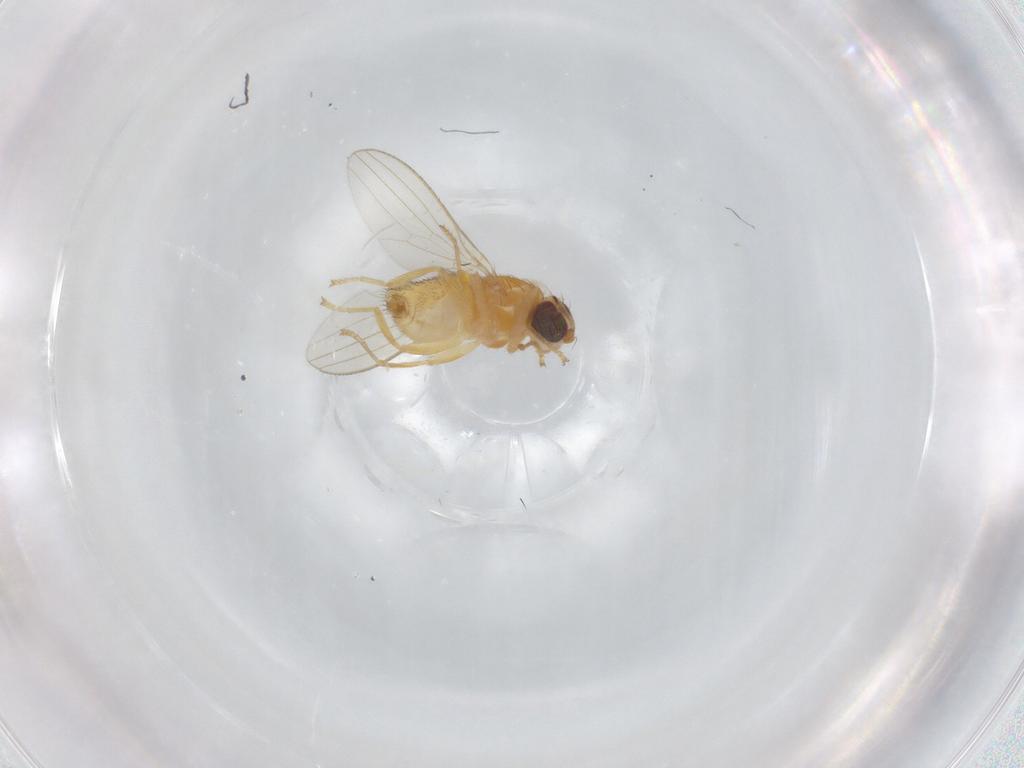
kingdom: Animalia
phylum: Arthropoda
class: Insecta
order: Diptera
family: Chyromyidae
